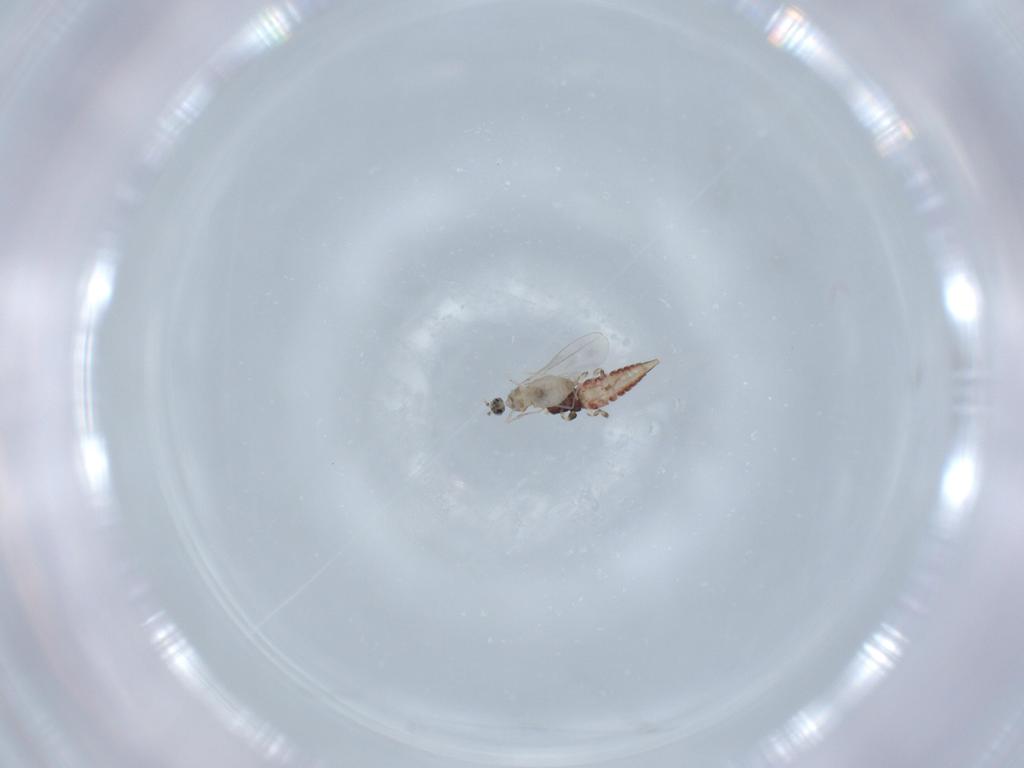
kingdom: Animalia
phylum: Arthropoda
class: Insecta
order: Diptera
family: Cecidomyiidae
